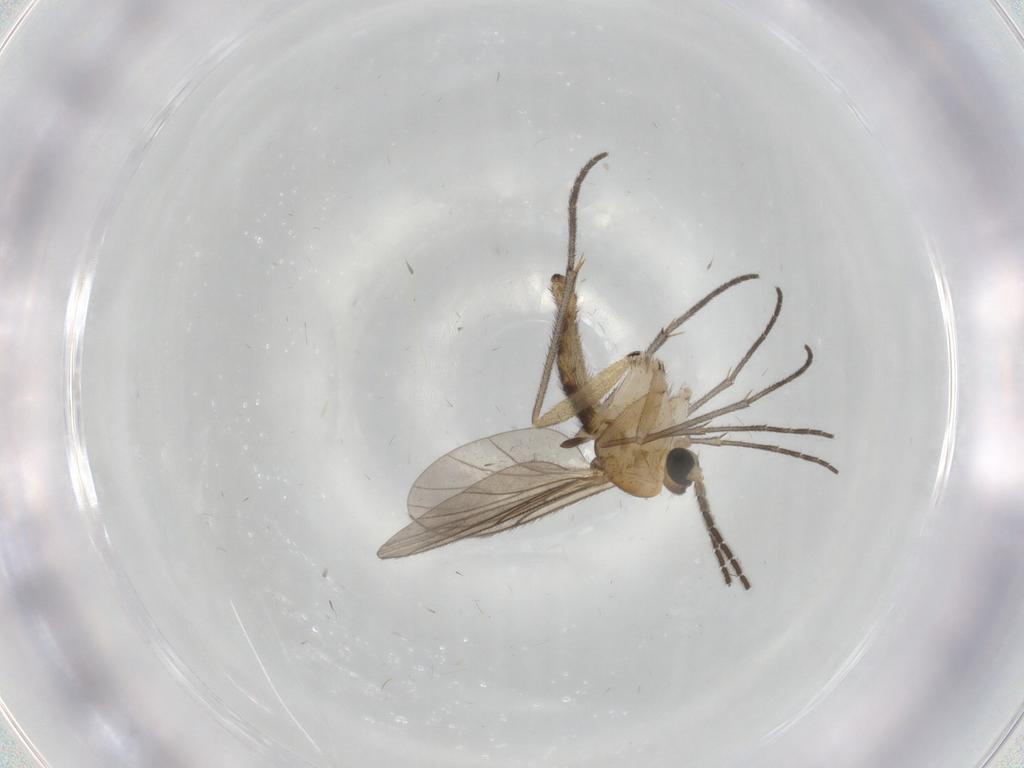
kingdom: Animalia
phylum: Arthropoda
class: Insecta
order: Diptera
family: Sciaridae
